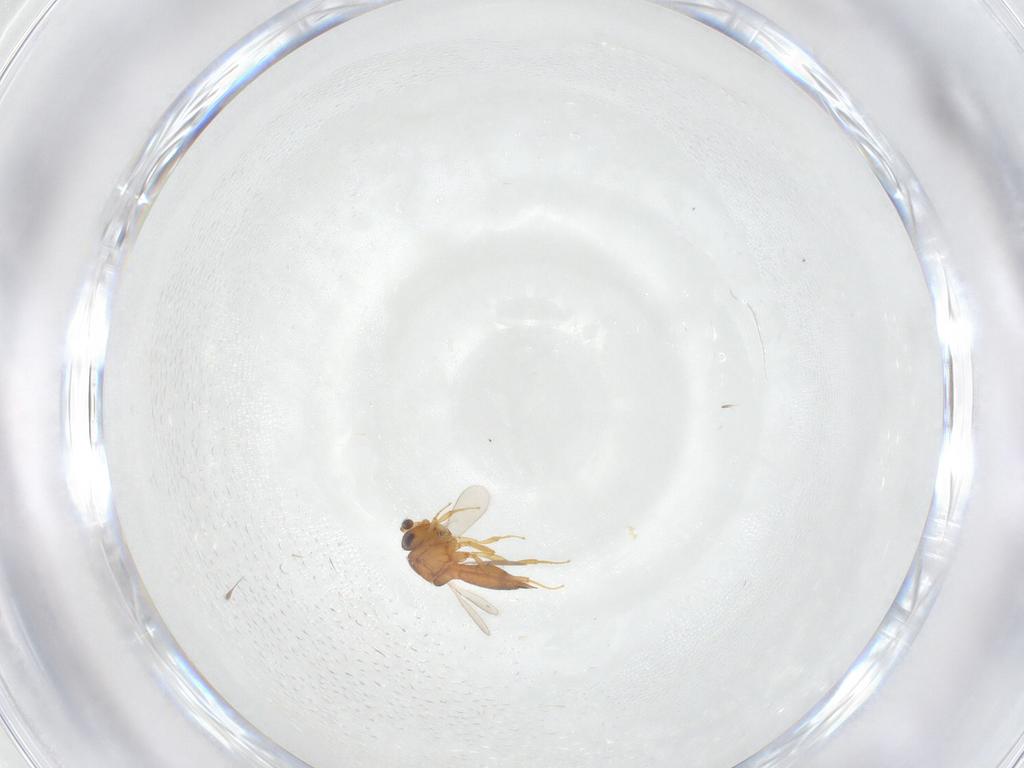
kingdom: Animalia
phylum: Arthropoda
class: Insecta
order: Hymenoptera
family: Scelionidae
